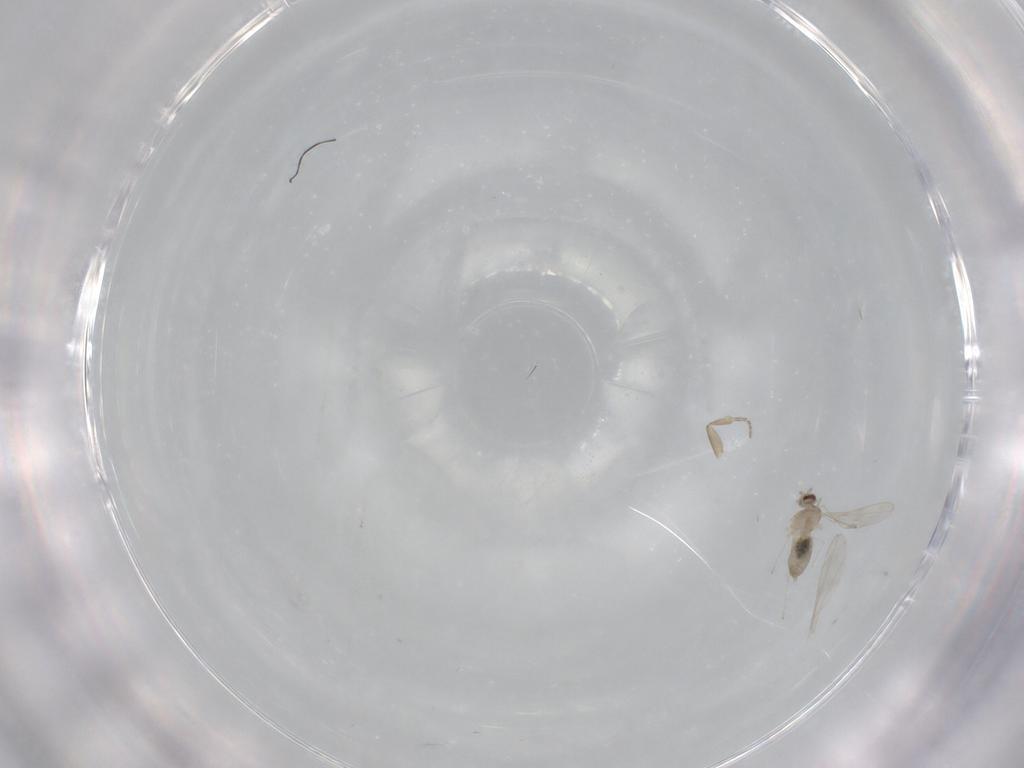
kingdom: Animalia
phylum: Arthropoda
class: Insecta
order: Diptera
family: Phoridae
